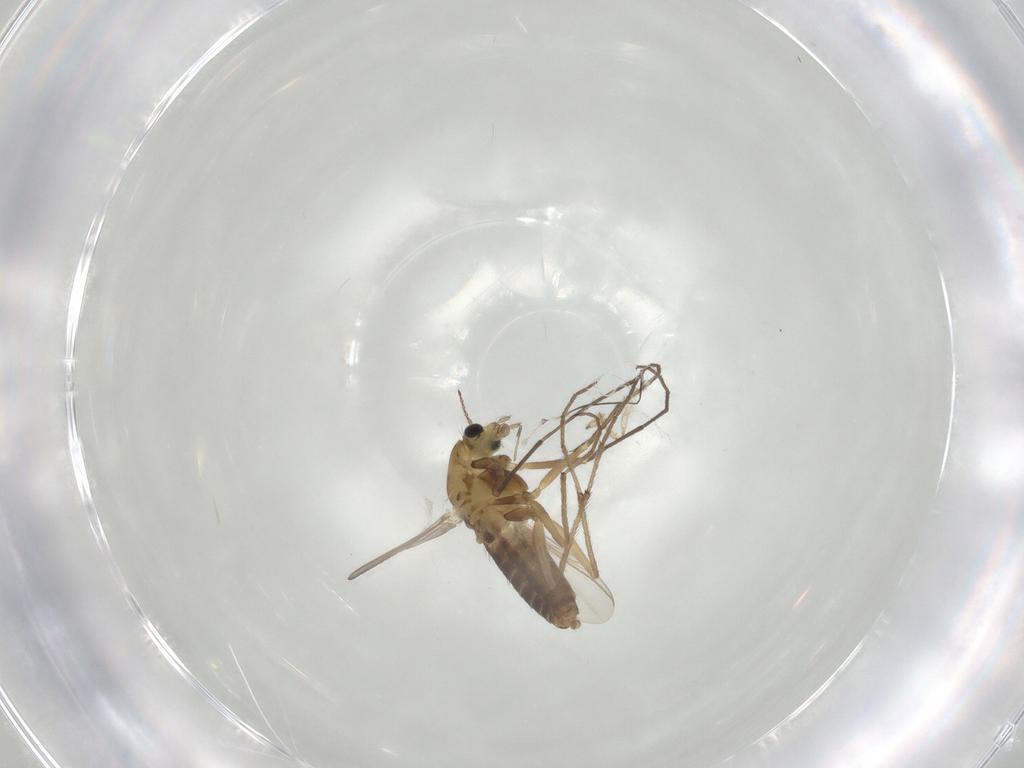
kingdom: Animalia
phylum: Arthropoda
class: Insecta
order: Diptera
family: Chironomidae
